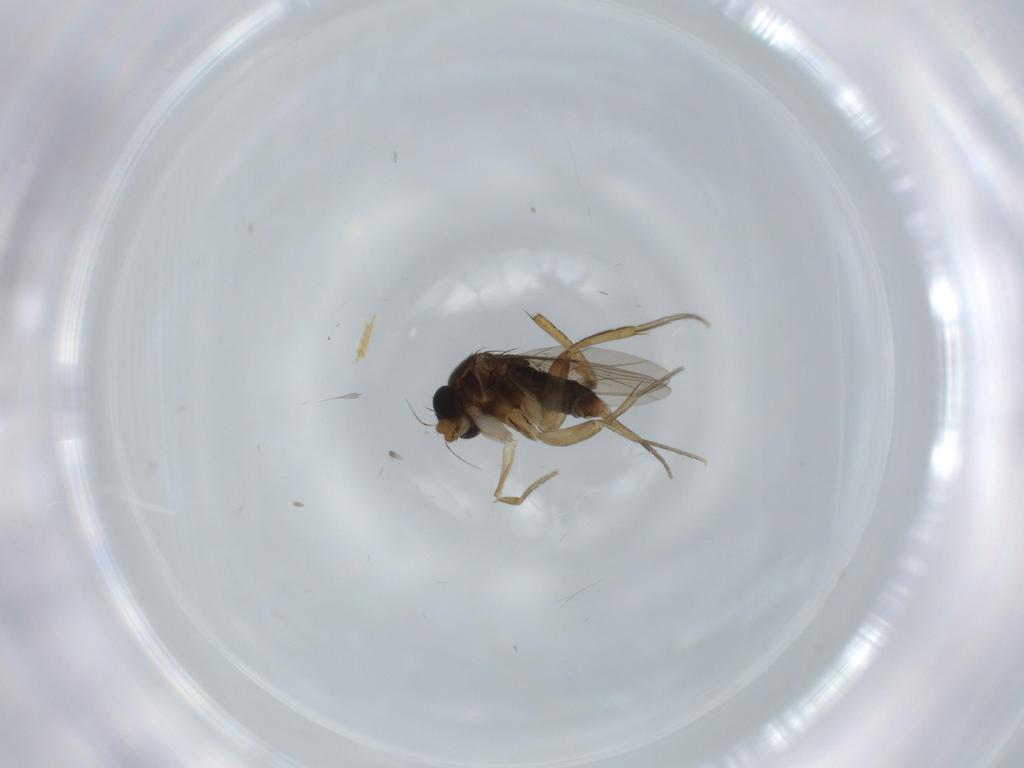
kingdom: Animalia
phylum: Arthropoda
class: Insecta
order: Diptera
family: Phoridae
